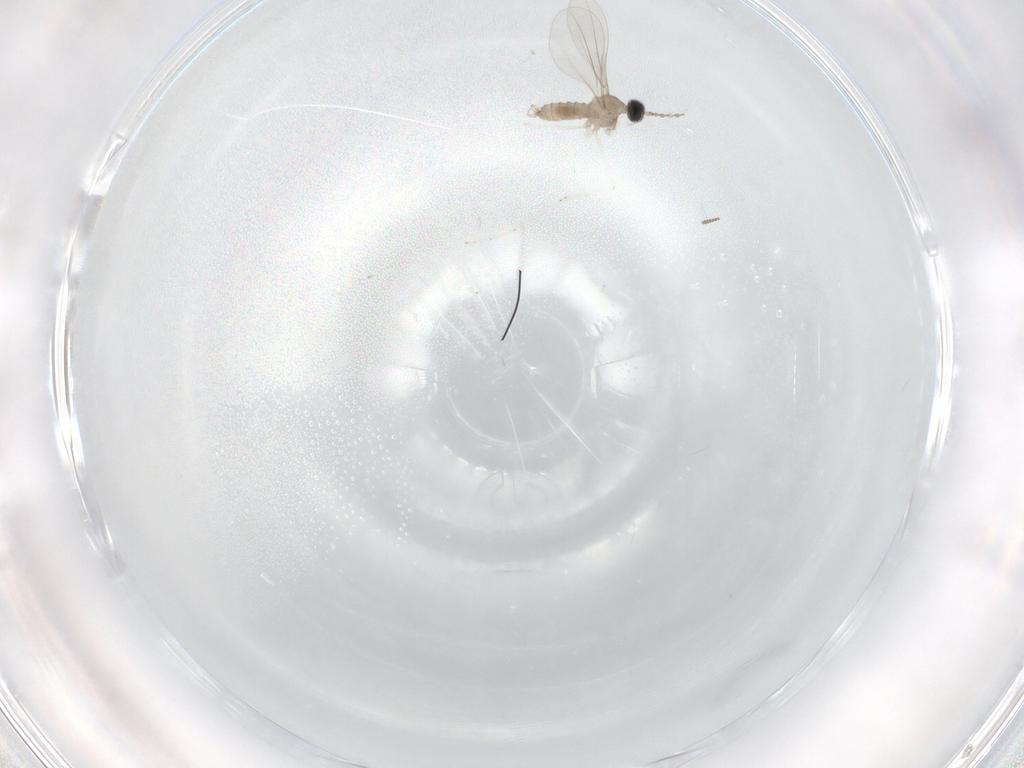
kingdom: Animalia
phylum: Arthropoda
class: Insecta
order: Diptera
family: Cecidomyiidae
